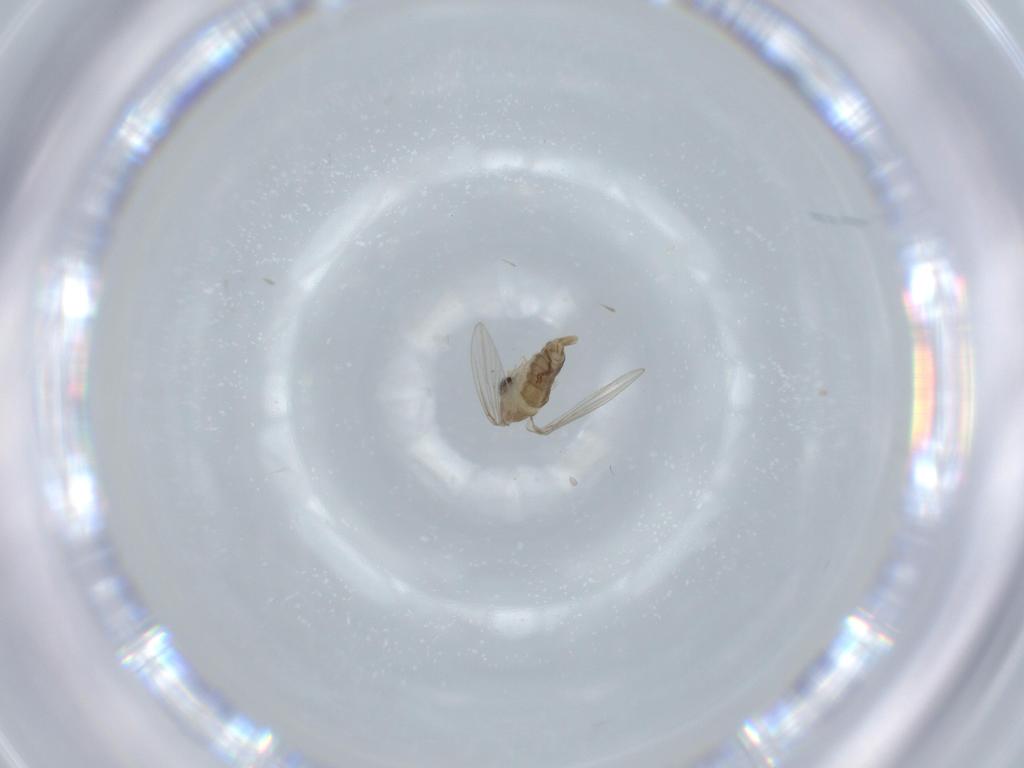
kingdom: Animalia
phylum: Arthropoda
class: Insecta
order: Diptera
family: Psychodidae
